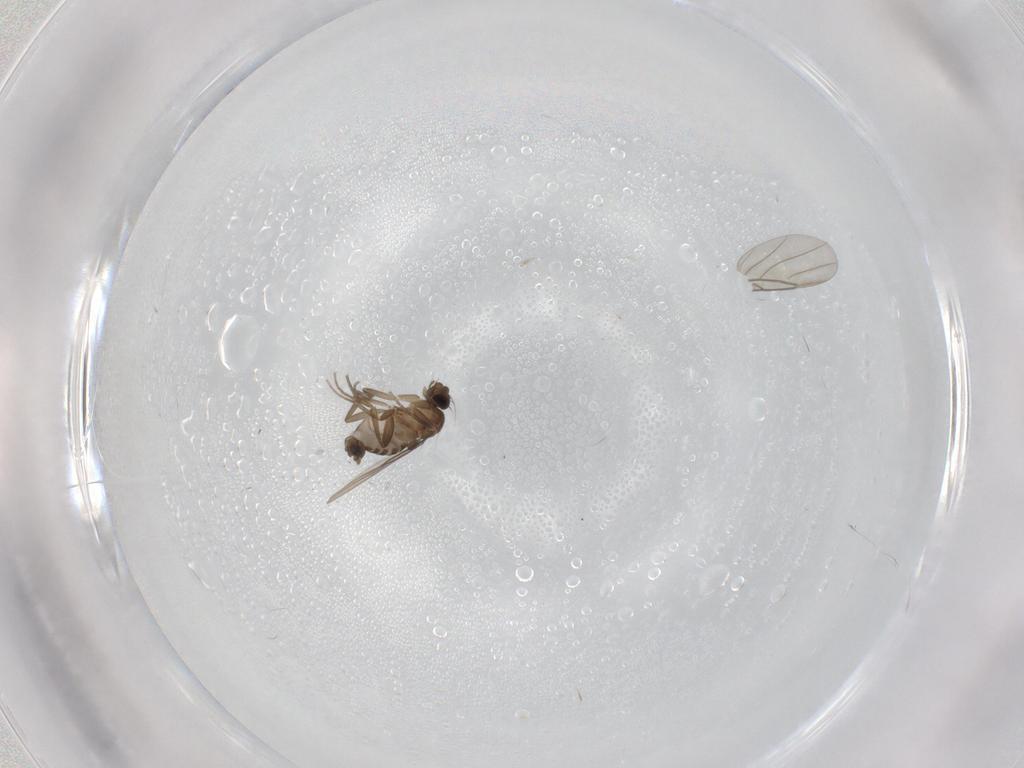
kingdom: Animalia
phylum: Arthropoda
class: Insecta
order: Diptera
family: Phoridae
